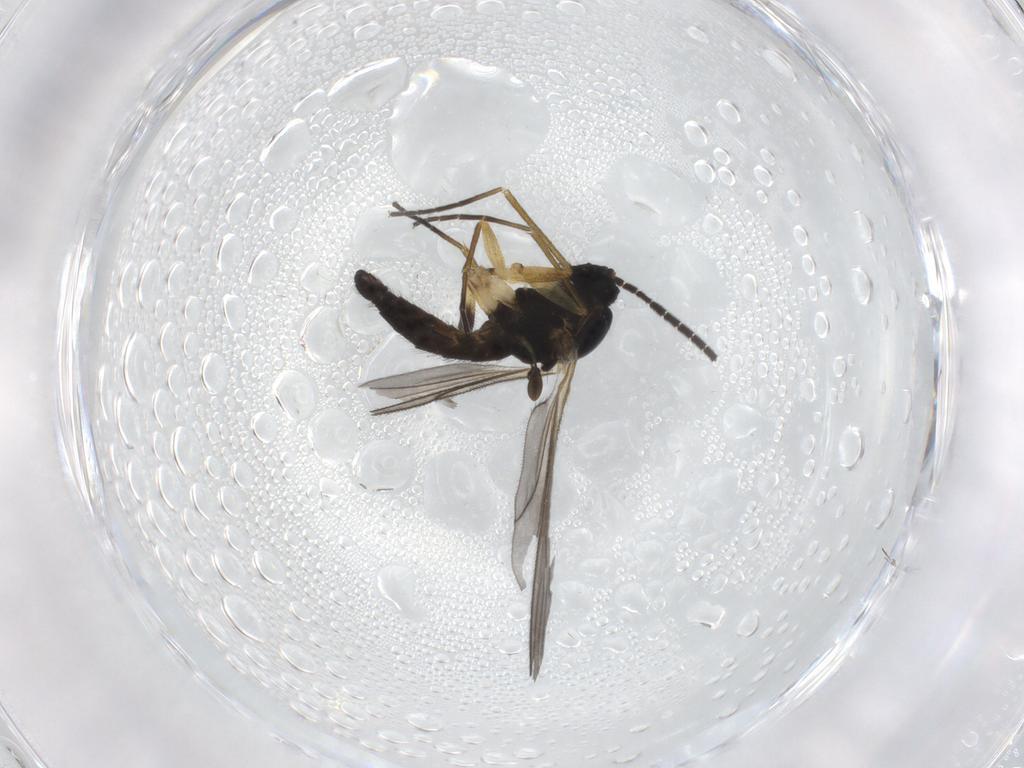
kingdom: Animalia
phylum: Arthropoda
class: Insecta
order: Diptera
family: Sciaridae
